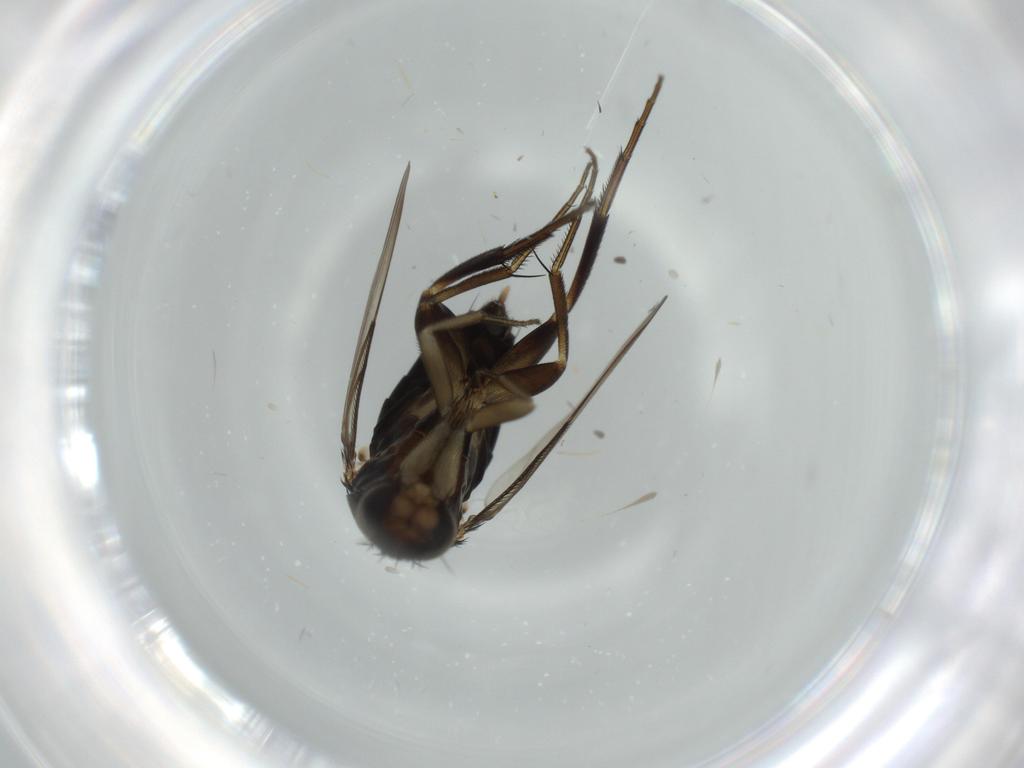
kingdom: Animalia
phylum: Arthropoda
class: Insecta
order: Diptera
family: Phoridae
